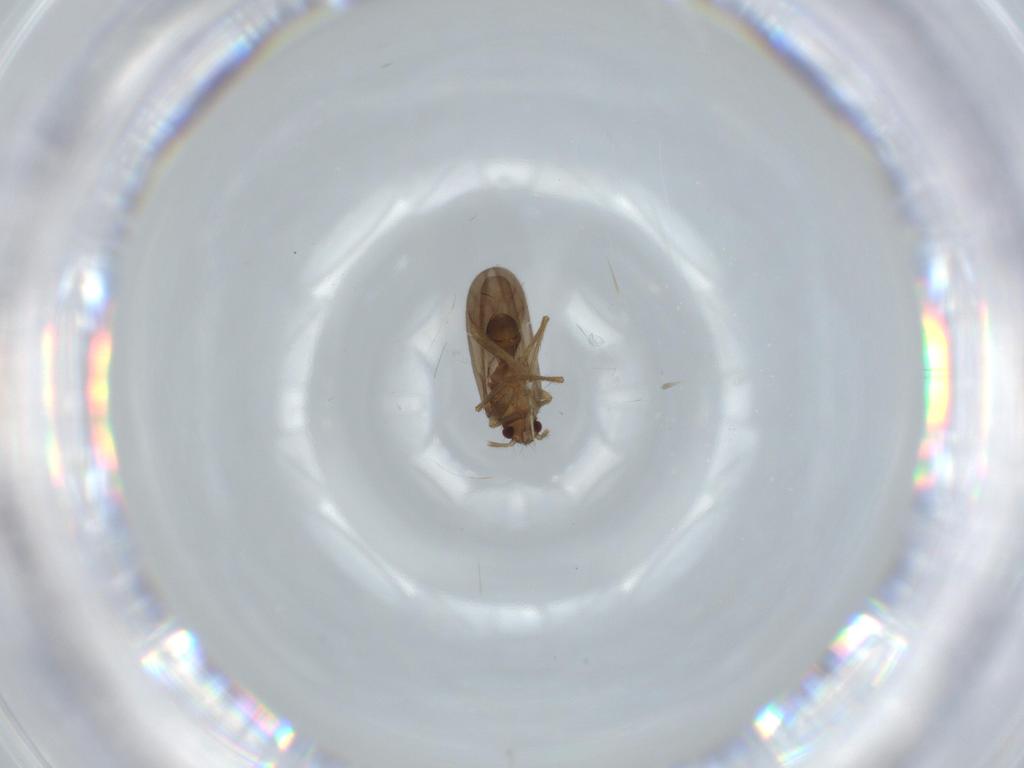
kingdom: Animalia
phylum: Arthropoda
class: Insecta
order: Hemiptera
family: Ceratocombidae
